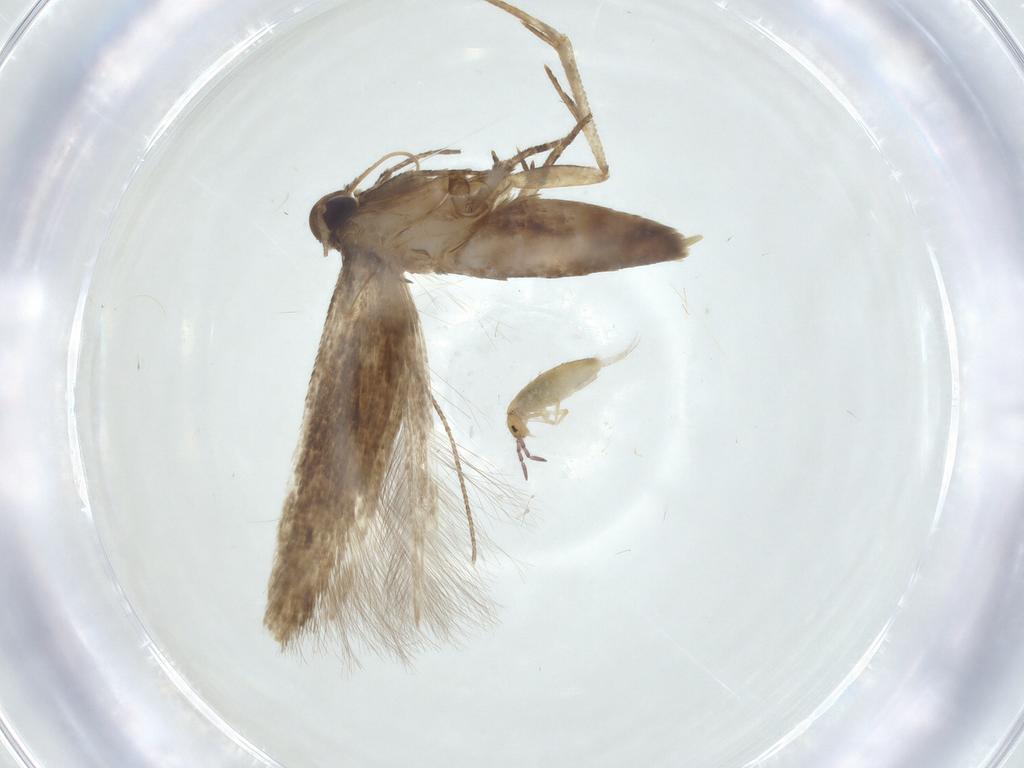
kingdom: Animalia
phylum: Arthropoda
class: Insecta
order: Lepidoptera
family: Cosmopterigidae
